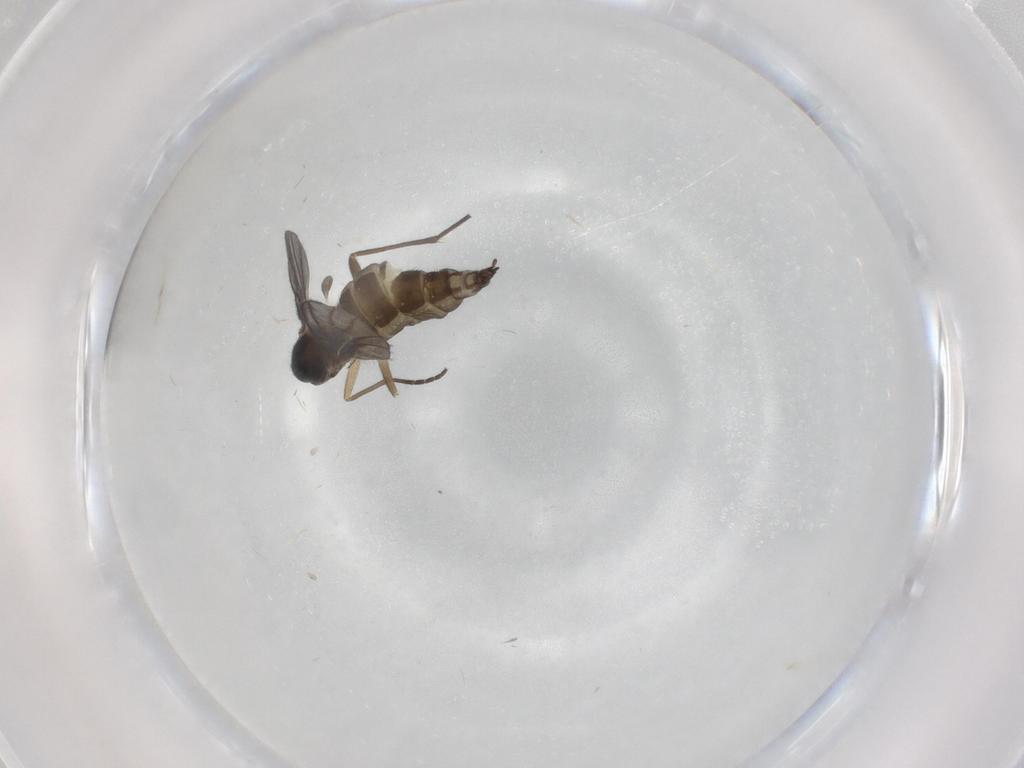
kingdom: Animalia
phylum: Arthropoda
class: Insecta
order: Diptera
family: Sciaridae
